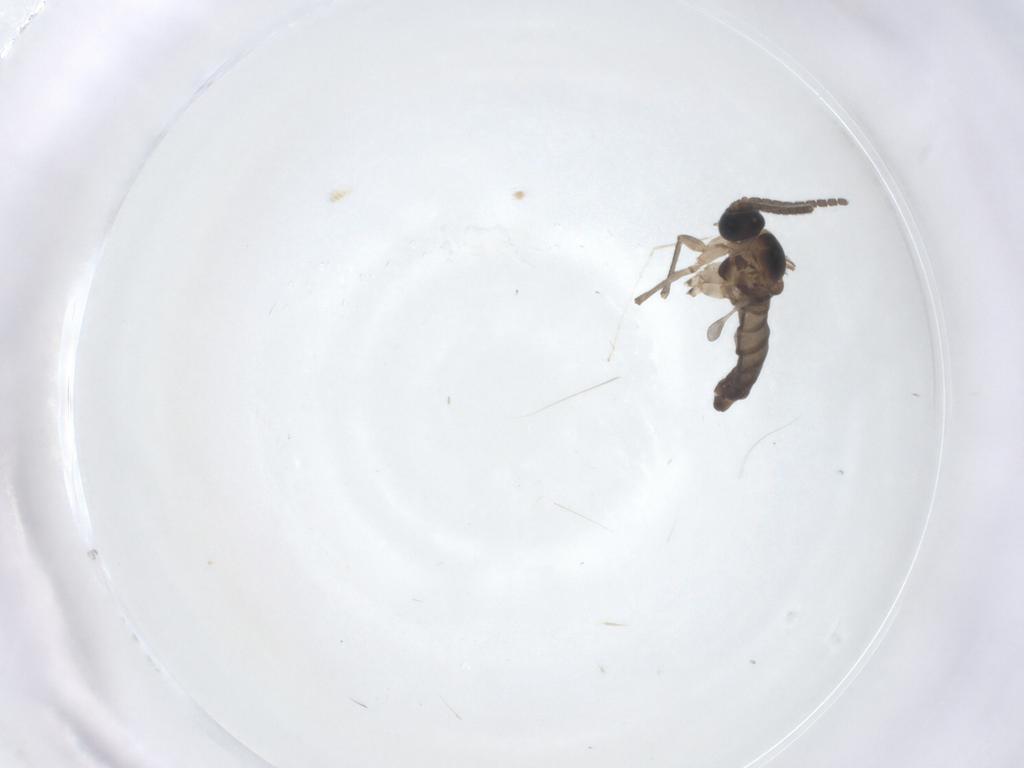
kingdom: Animalia
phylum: Arthropoda
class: Insecta
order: Diptera
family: Sciaridae
